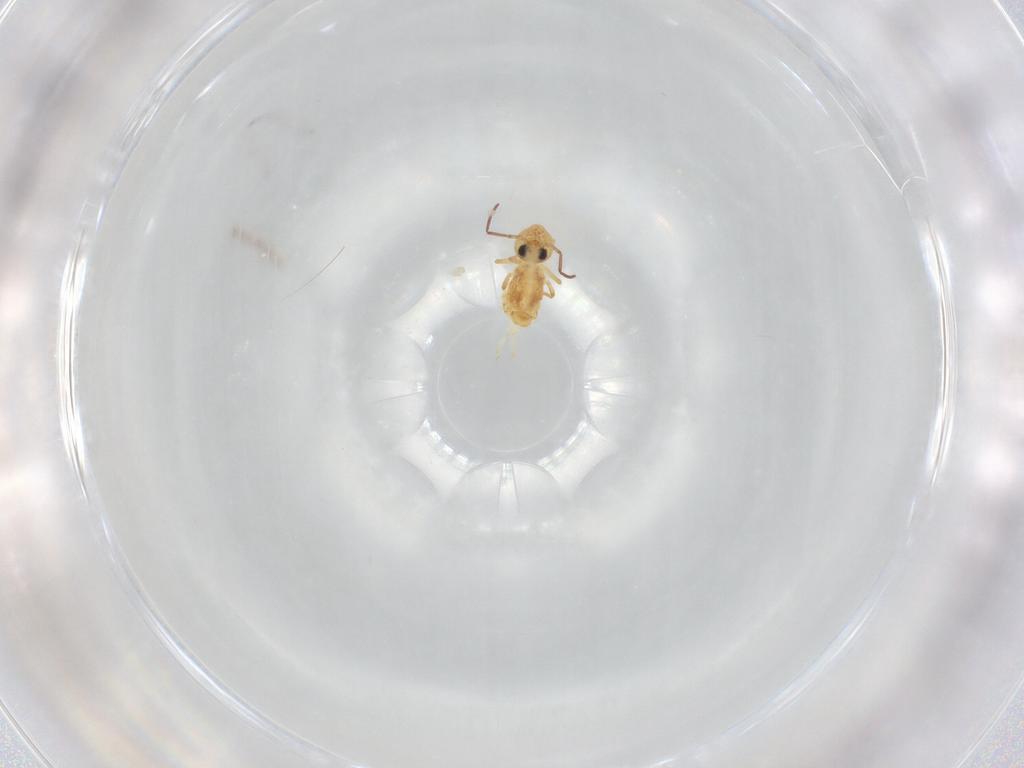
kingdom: Animalia
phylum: Arthropoda
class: Collembola
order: Symphypleona
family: Bourletiellidae
